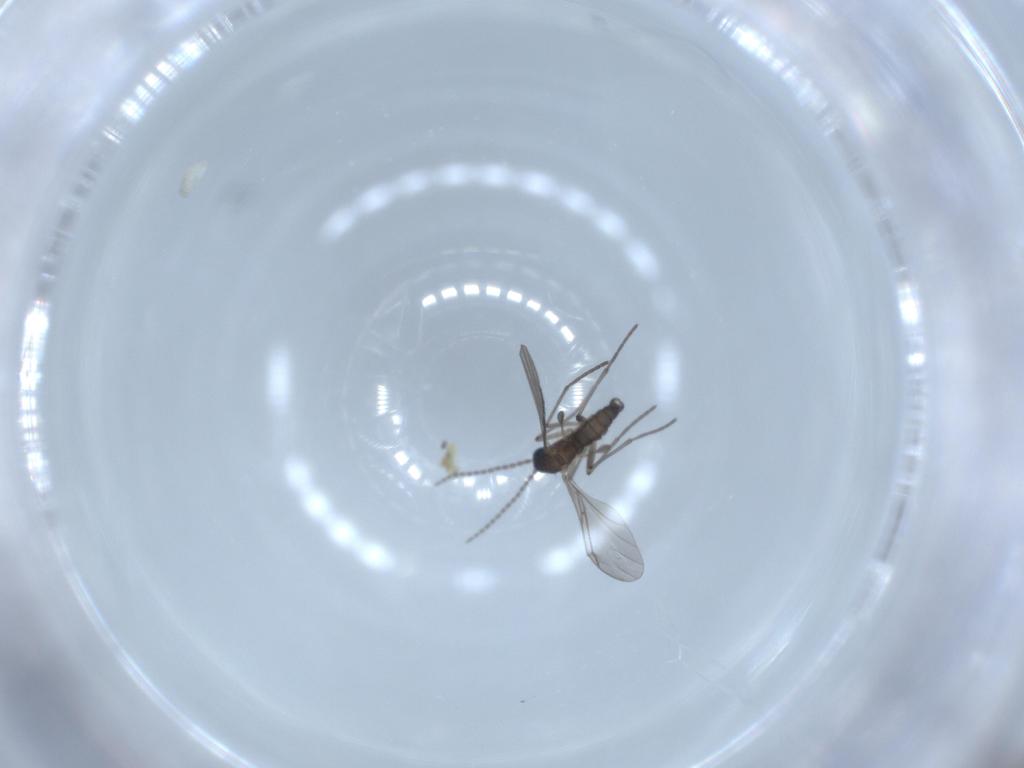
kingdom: Animalia
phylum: Arthropoda
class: Insecta
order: Diptera
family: Sciaridae
